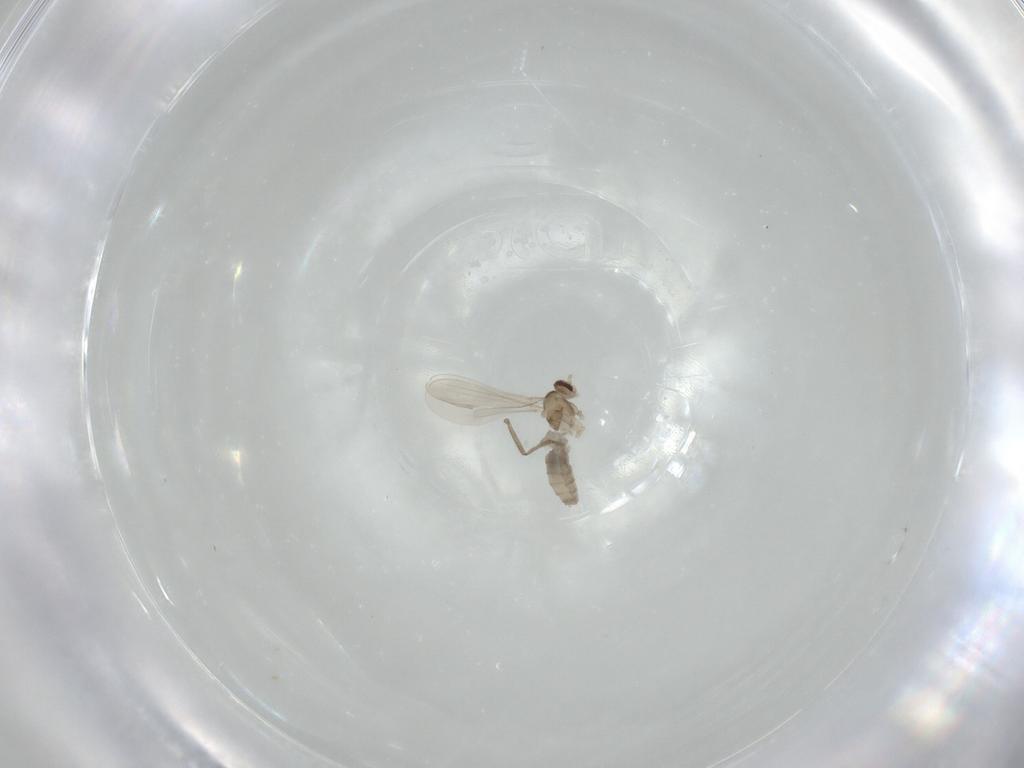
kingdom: Animalia
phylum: Arthropoda
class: Insecta
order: Diptera
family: Cecidomyiidae
